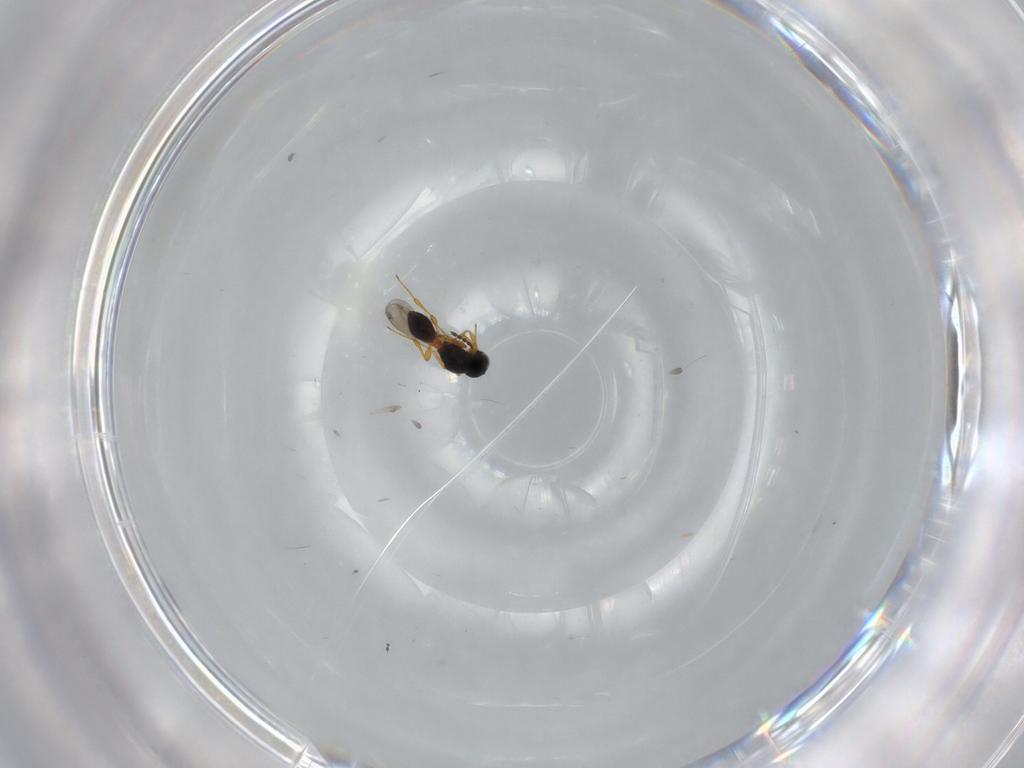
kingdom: Animalia
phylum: Arthropoda
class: Insecta
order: Hymenoptera
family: Platygastridae
